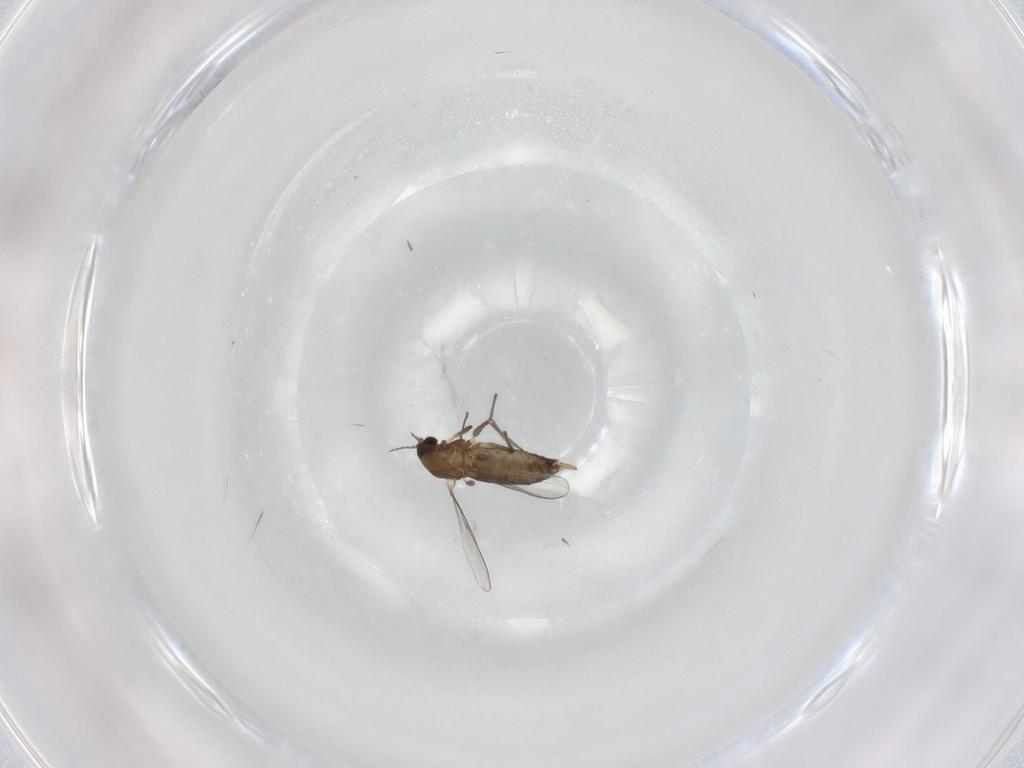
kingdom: Animalia
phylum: Arthropoda
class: Insecta
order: Diptera
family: Chironomidae
